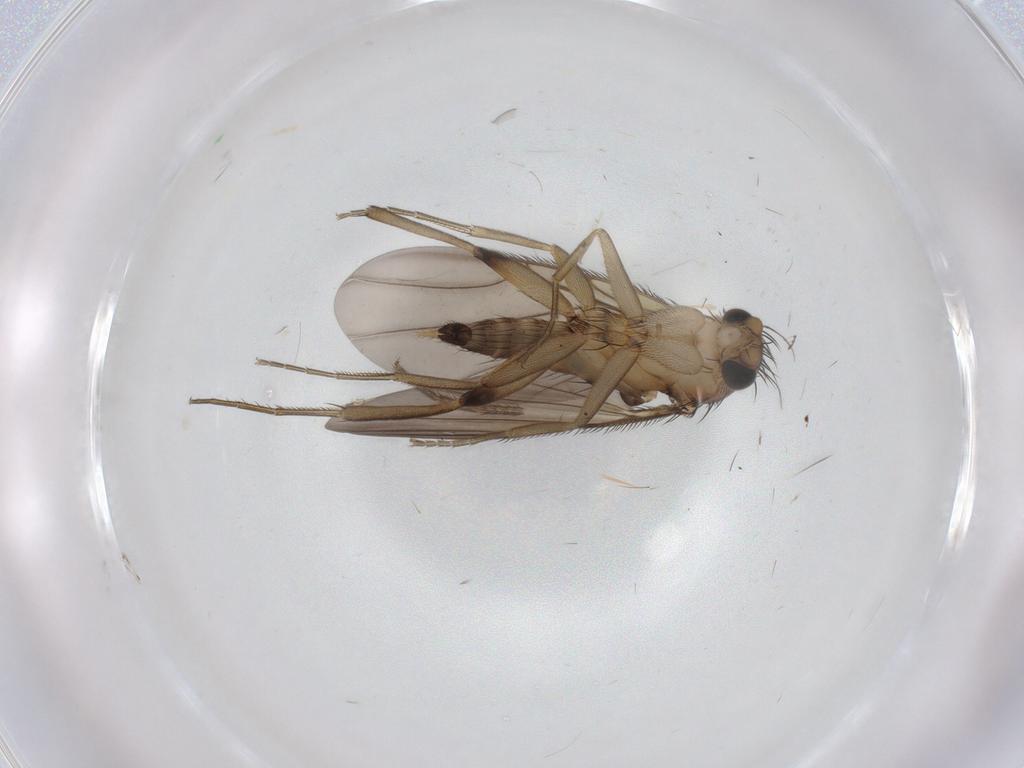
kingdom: Animalia
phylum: Arthropoda
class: Insecta
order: Diptera
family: Phoridae
